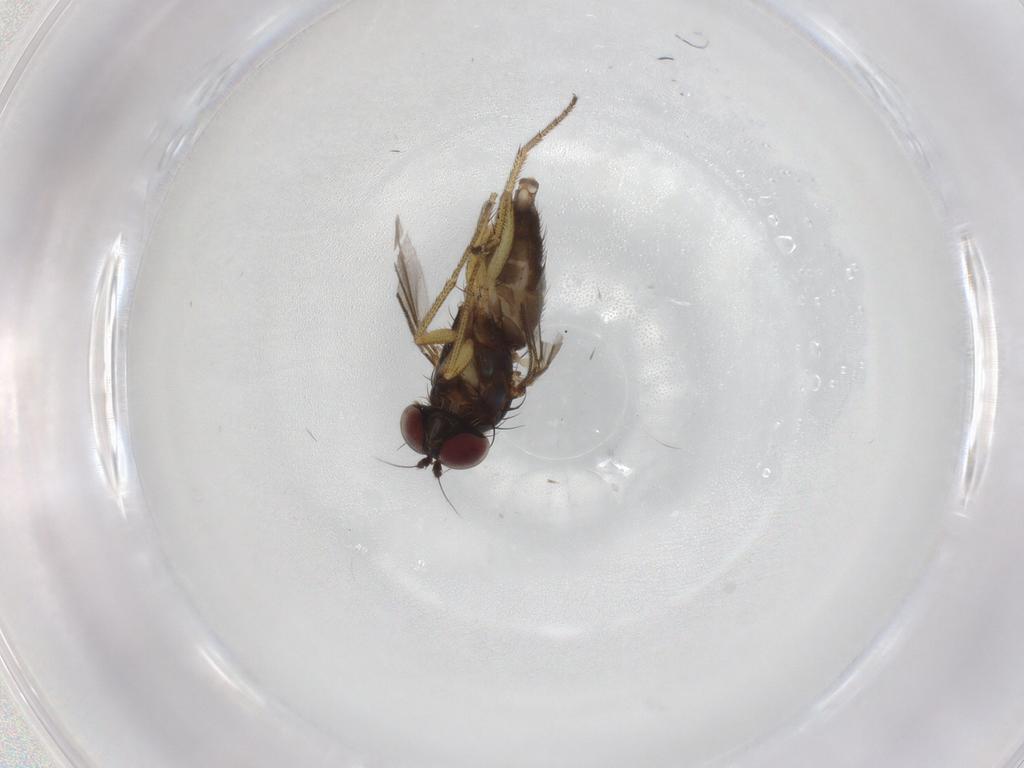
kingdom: Animalia
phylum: Arthropoda
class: Insecta
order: Diptera
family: Dolichopodidae
